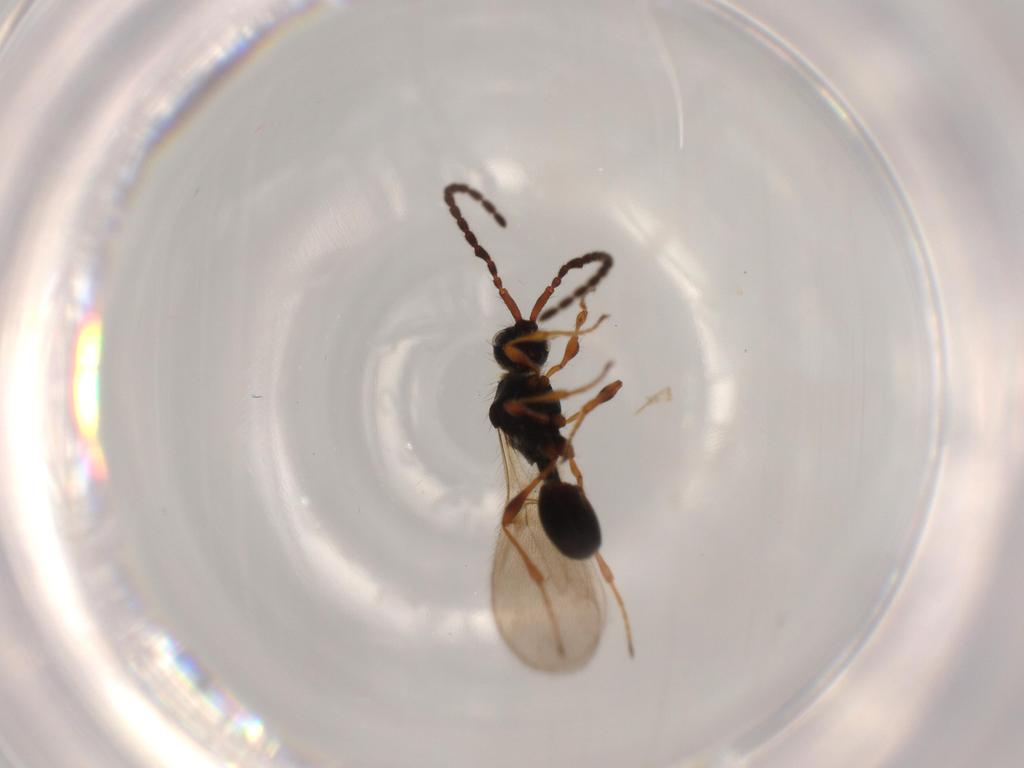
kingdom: Animalia
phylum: Arthropoda
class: Insecta
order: Hymenoptera
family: Diapriidae
